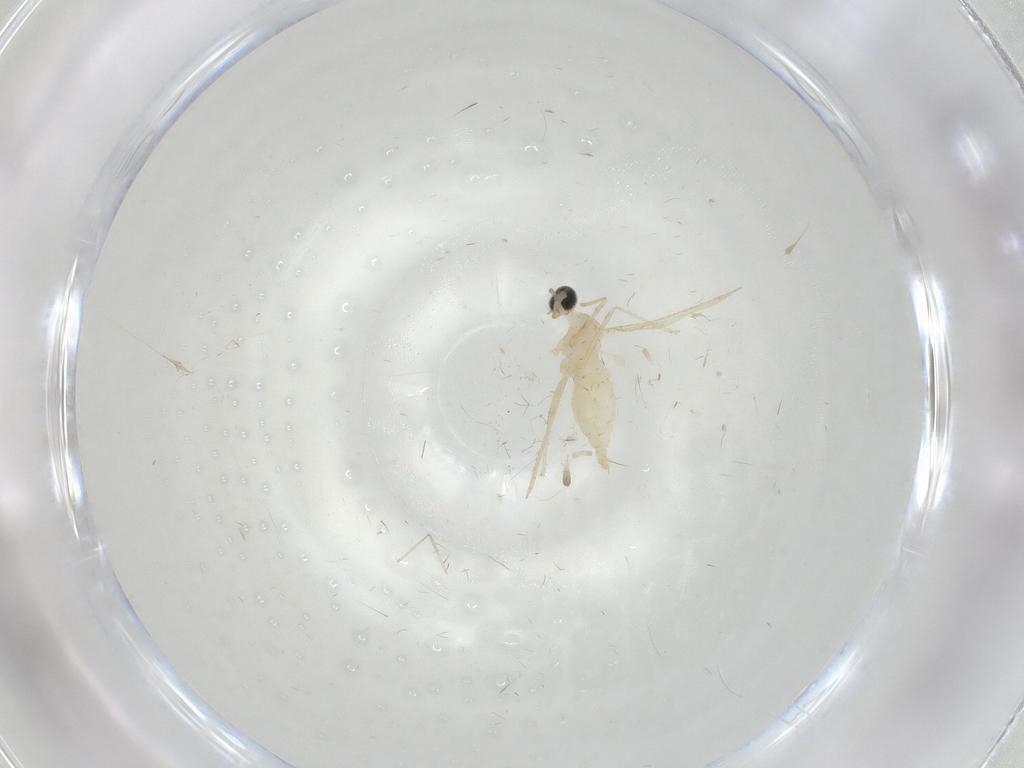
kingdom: Animalia
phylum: Arthropoda
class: Insecta
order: Diptera
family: Cecidomyiidae
